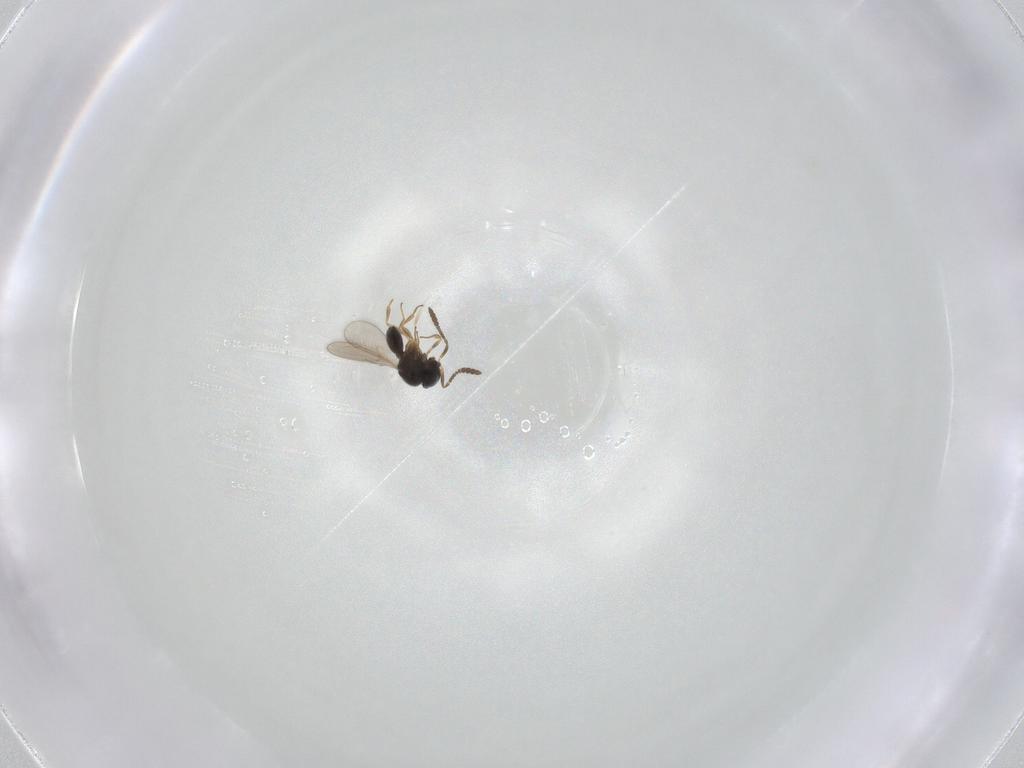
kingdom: Animalia
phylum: Arthropoda
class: Insecta
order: Hymenoptera
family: Scelionidae
